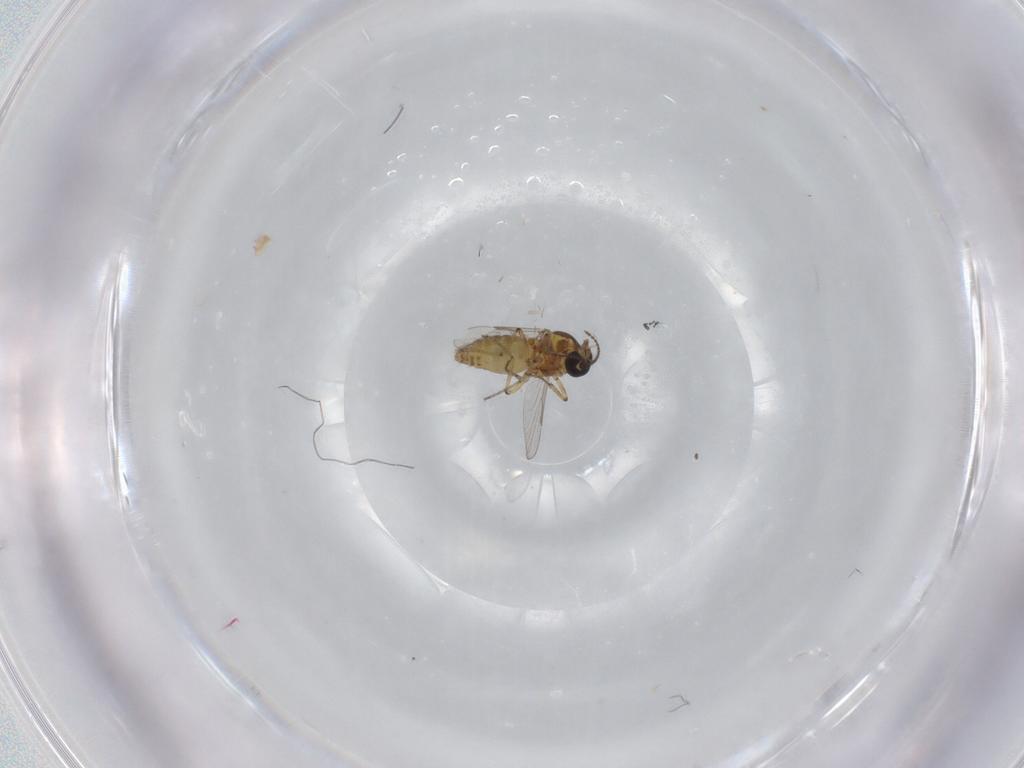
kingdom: Animalia
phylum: Arthropoda
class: Insecta
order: Diptera
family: Ceratopogonidae
